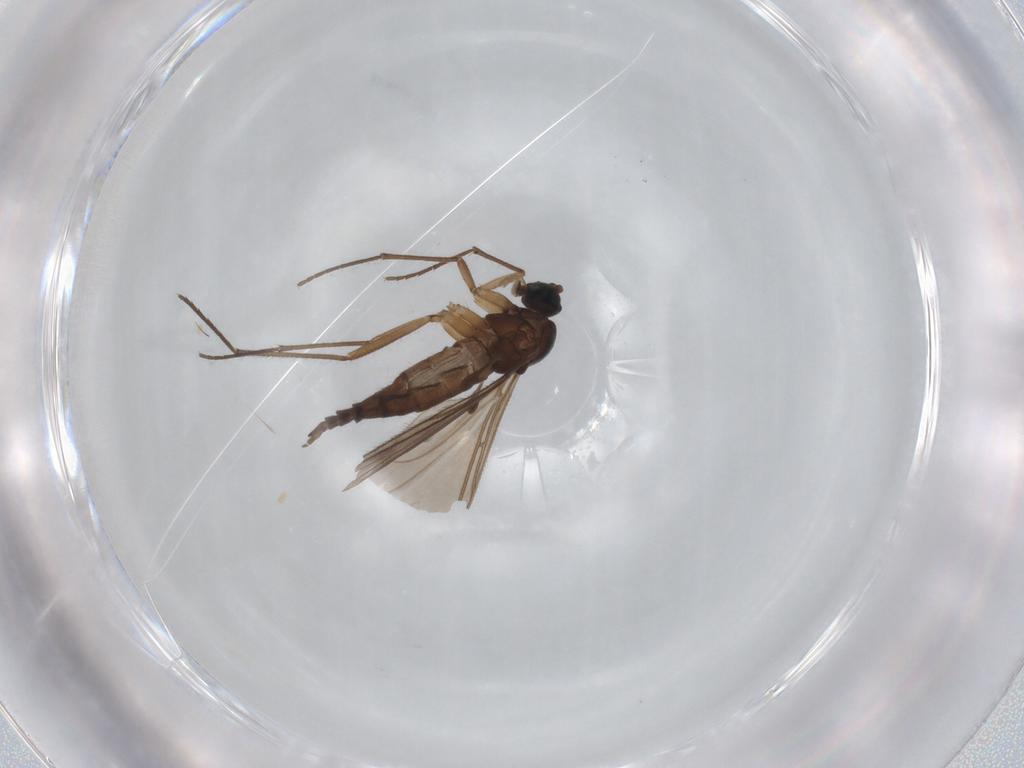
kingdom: Animalia
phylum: Arthropoda
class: Insecta
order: Diptera
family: Sciaridae
